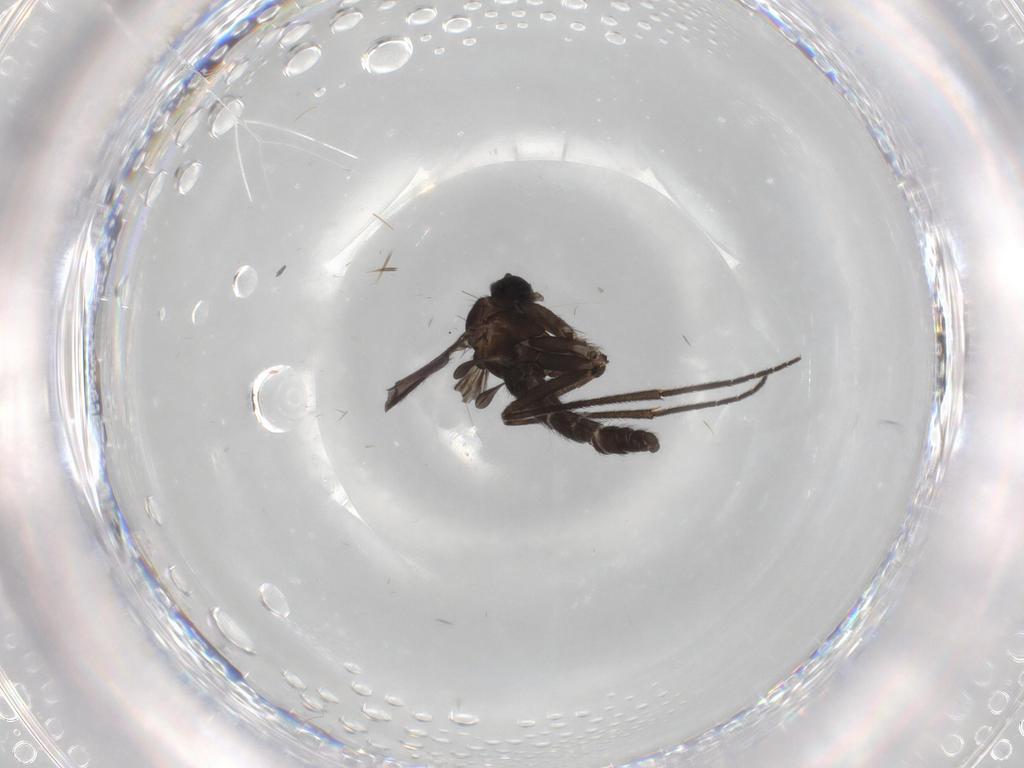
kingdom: Animalia
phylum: Arthropoda
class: Insecta
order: Diptera
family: Sciaridae
